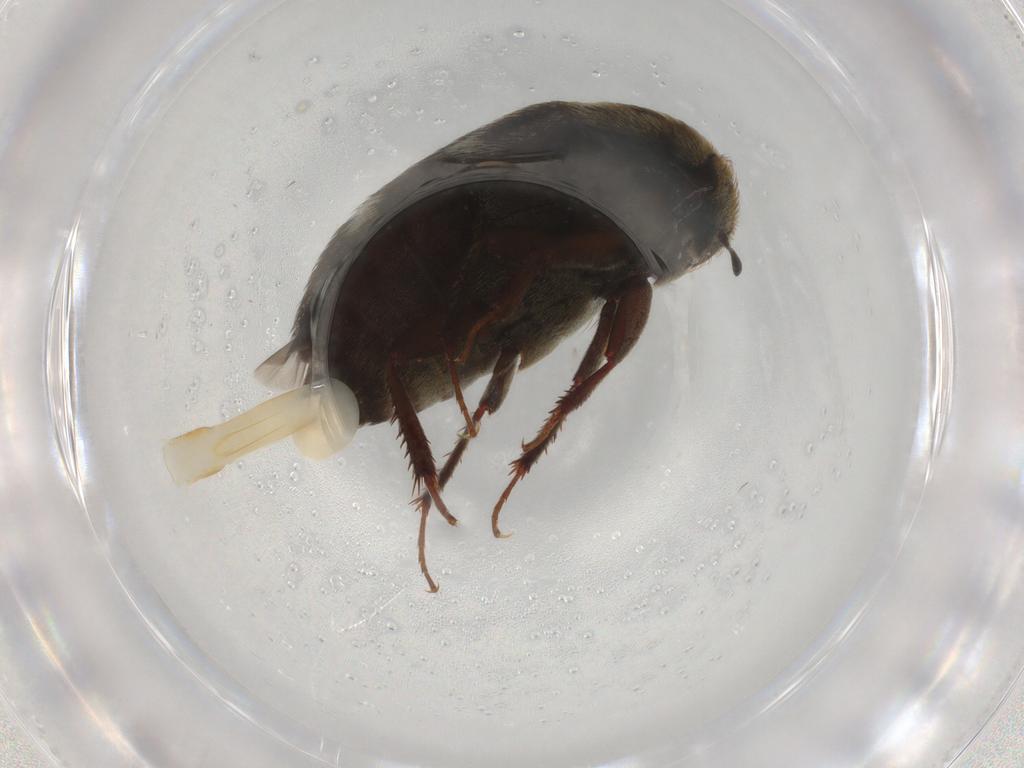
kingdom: Animalia
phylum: Arthropoda
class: Insecta
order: Coleoptera
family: Dermestidae
